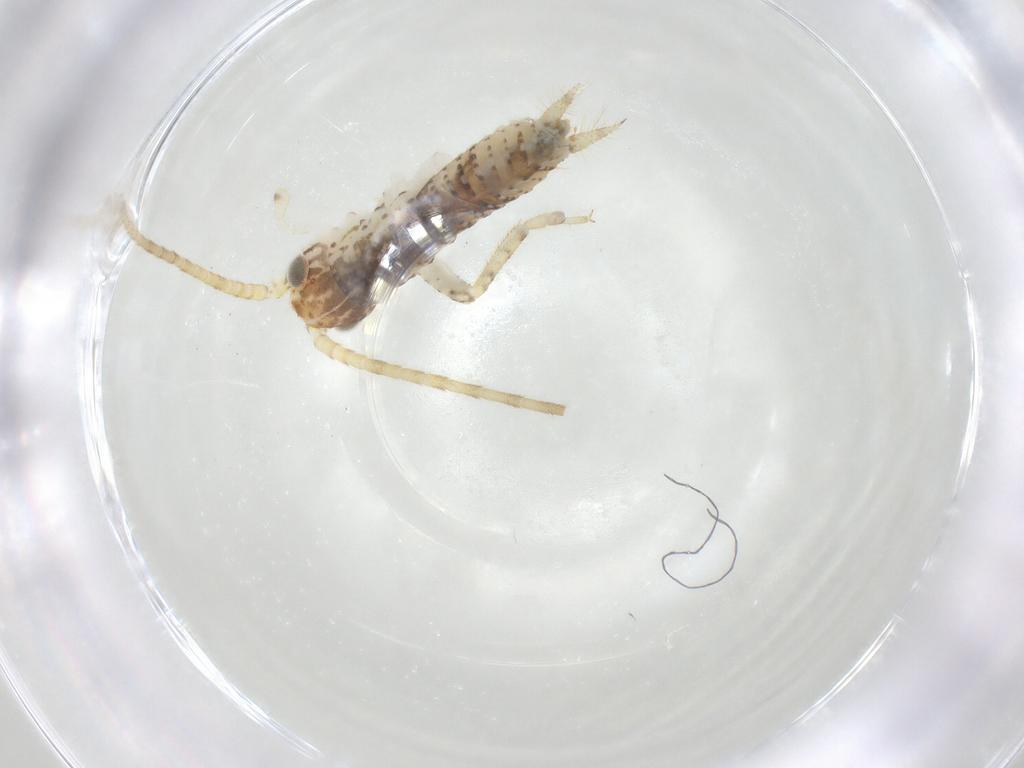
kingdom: Animalia
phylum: Arthropoda
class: Insecta
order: Orthoptera
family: Gryllidae
